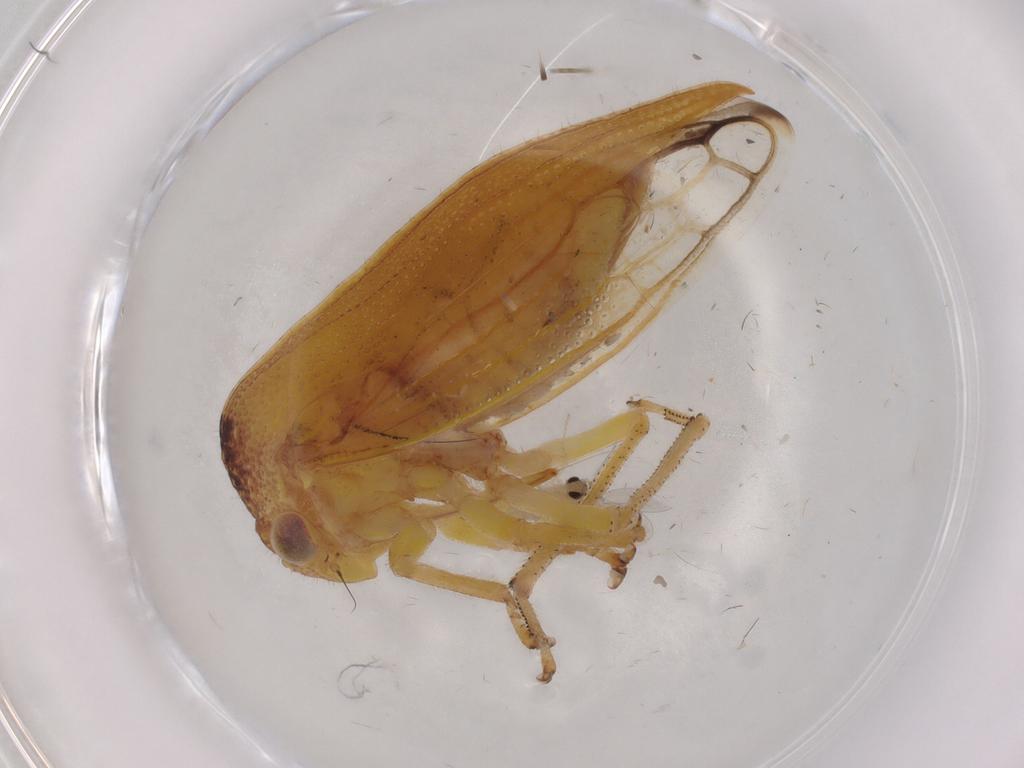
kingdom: Animalia
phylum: Arthropoda
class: Insecta
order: Hemiptera
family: Membracidae
